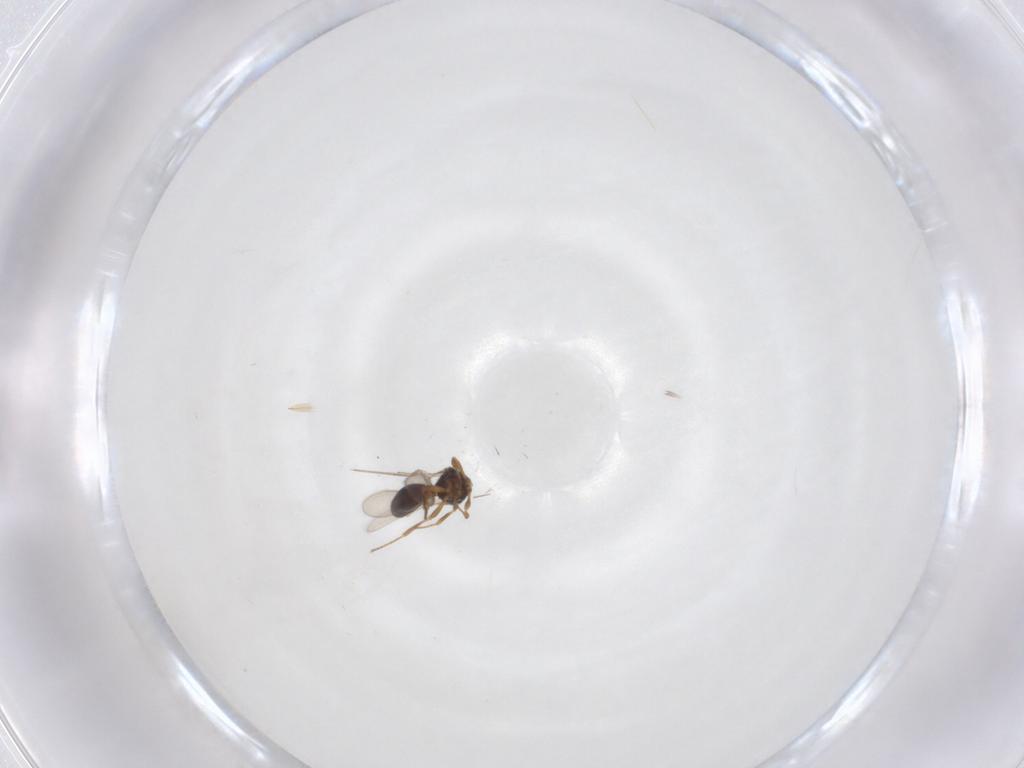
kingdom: Animalia
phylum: Arthropoda
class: Insecta
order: Hymenoptera
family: Scelionidae
